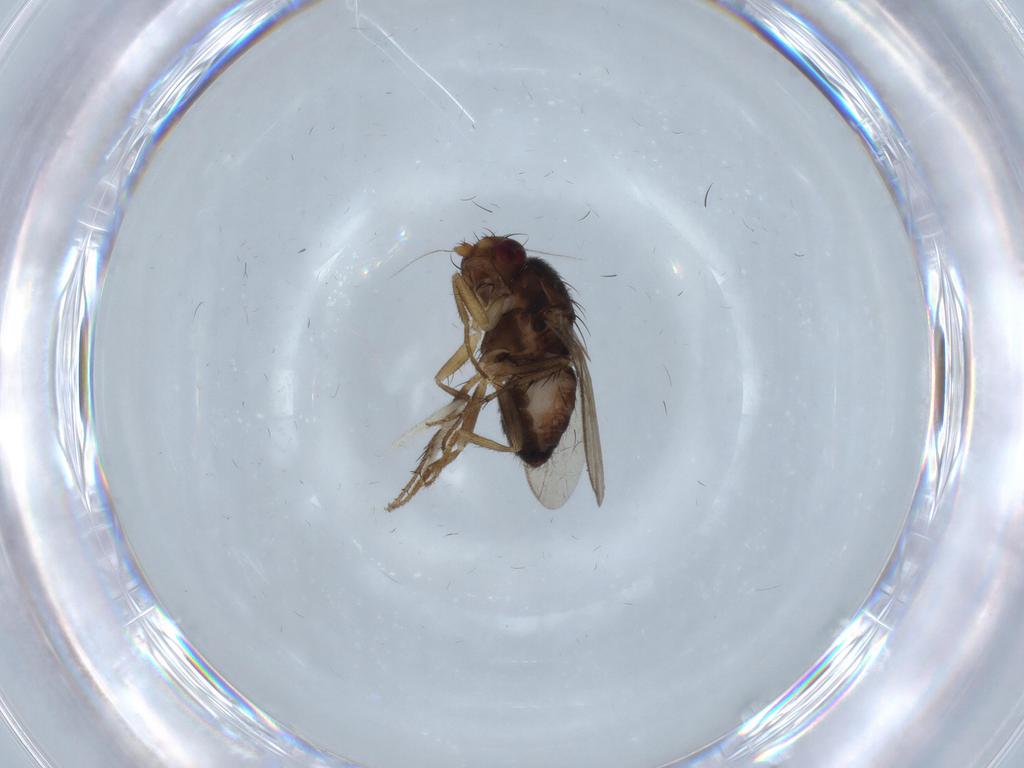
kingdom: Animalia
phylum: Arthropoda
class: Insecta
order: Diptera
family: Sphaeroceridae
